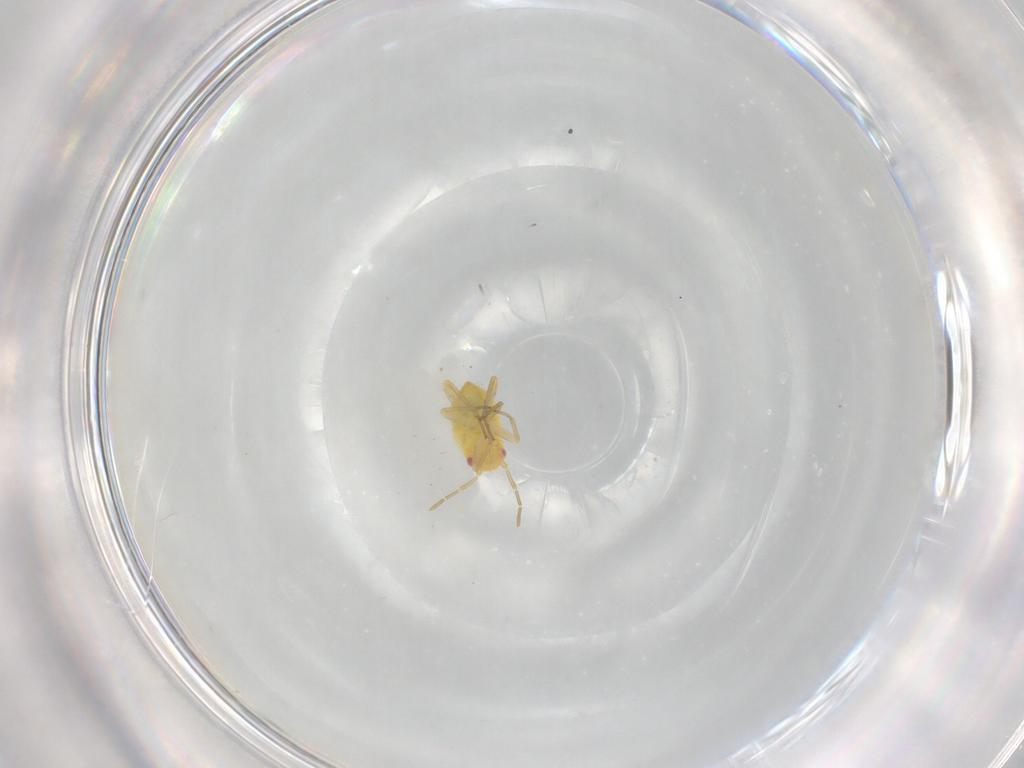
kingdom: Animalia
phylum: Arthropoda
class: Insecta
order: Hemiptera
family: Miridae
